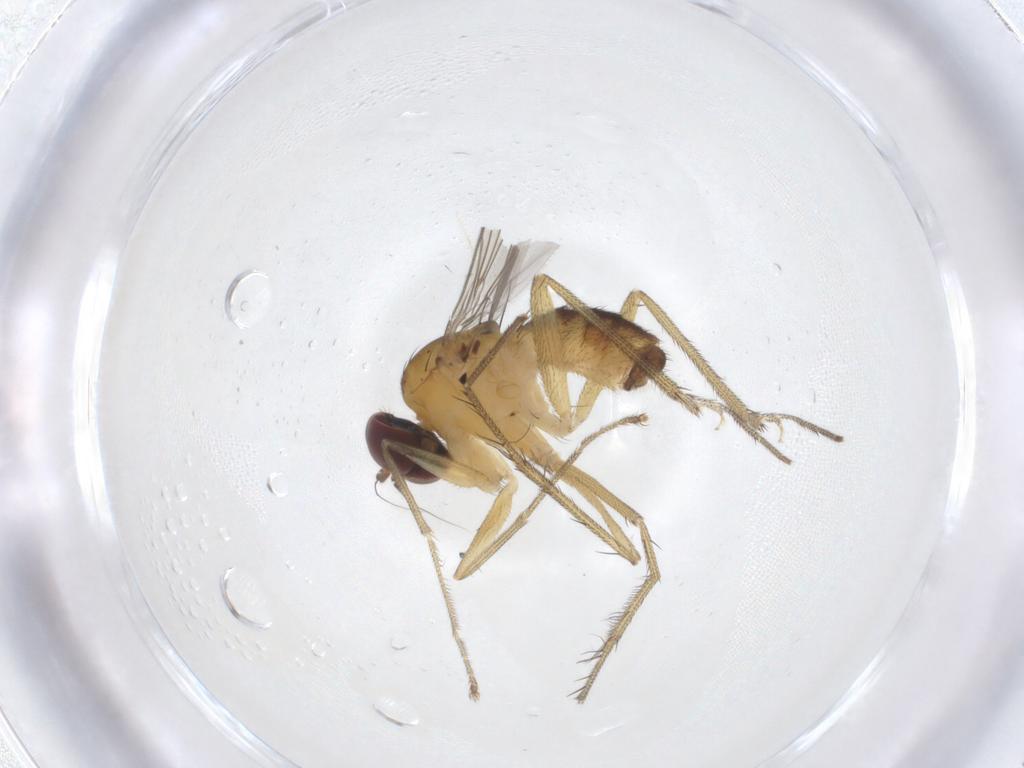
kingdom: Animalia
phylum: Arthropoda
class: Insecta
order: Diptera
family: Dolichopodidae
